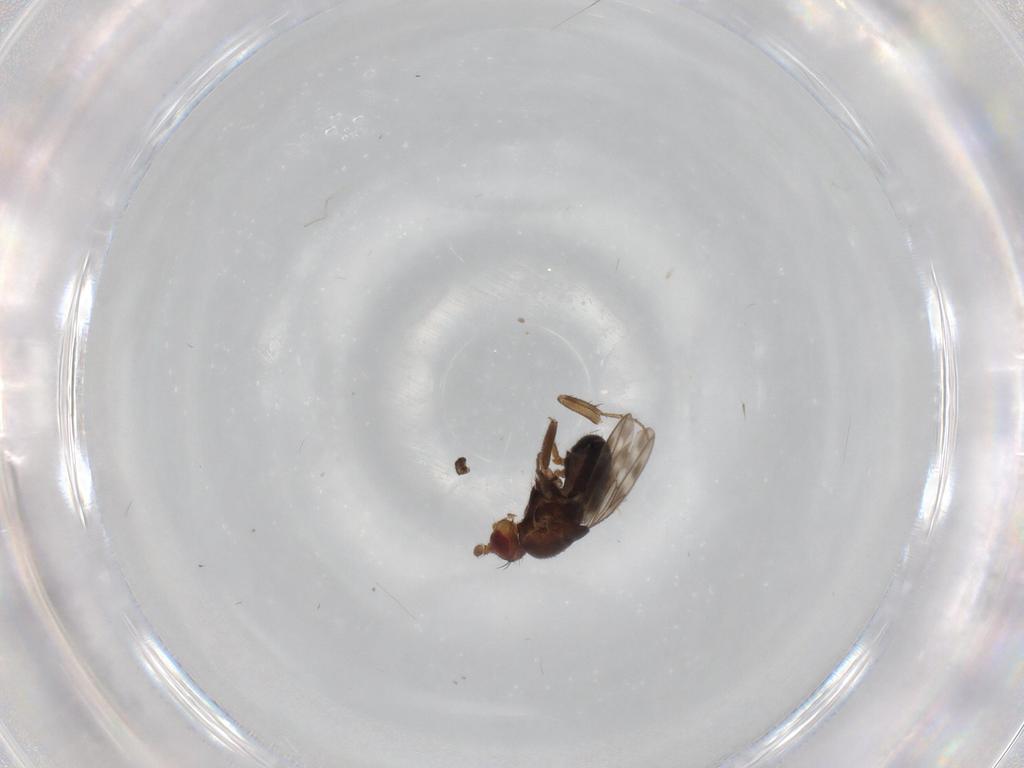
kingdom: Animalia
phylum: Arthropoda
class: Insecta
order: Diptera
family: Sphaeroceridae
